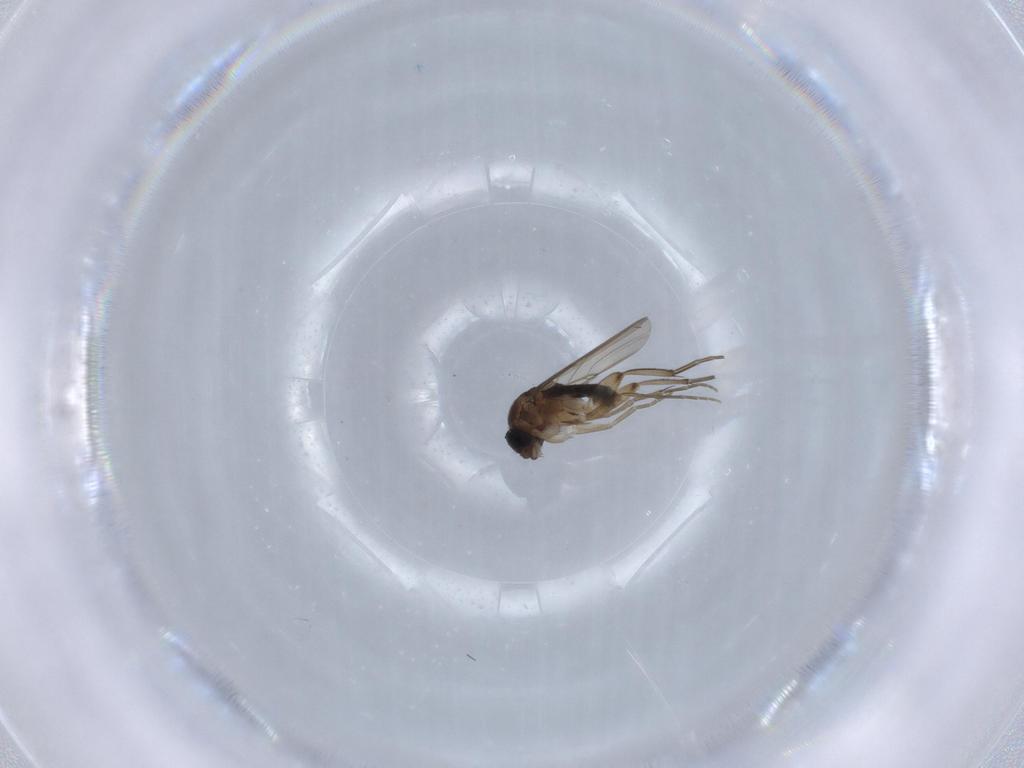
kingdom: Animalia
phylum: Arthropoda
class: Insecta
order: Diptera
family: Phoridae
